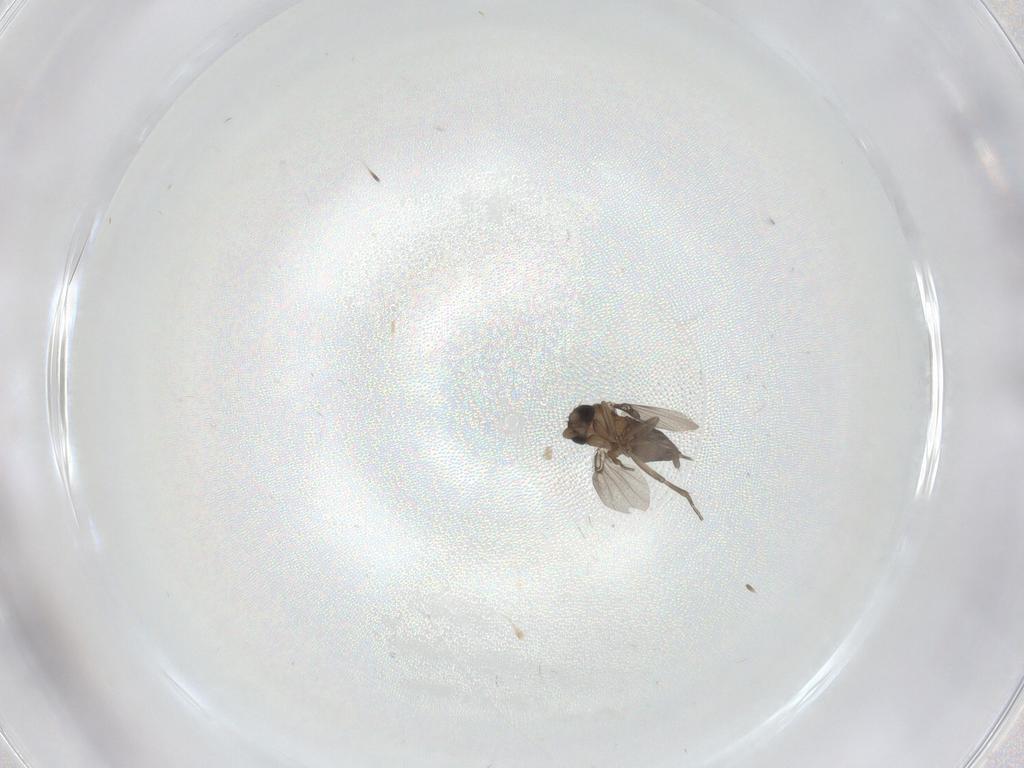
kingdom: Animalia
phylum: Arthropoda
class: Insecta
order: Diptera
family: Phoridae
